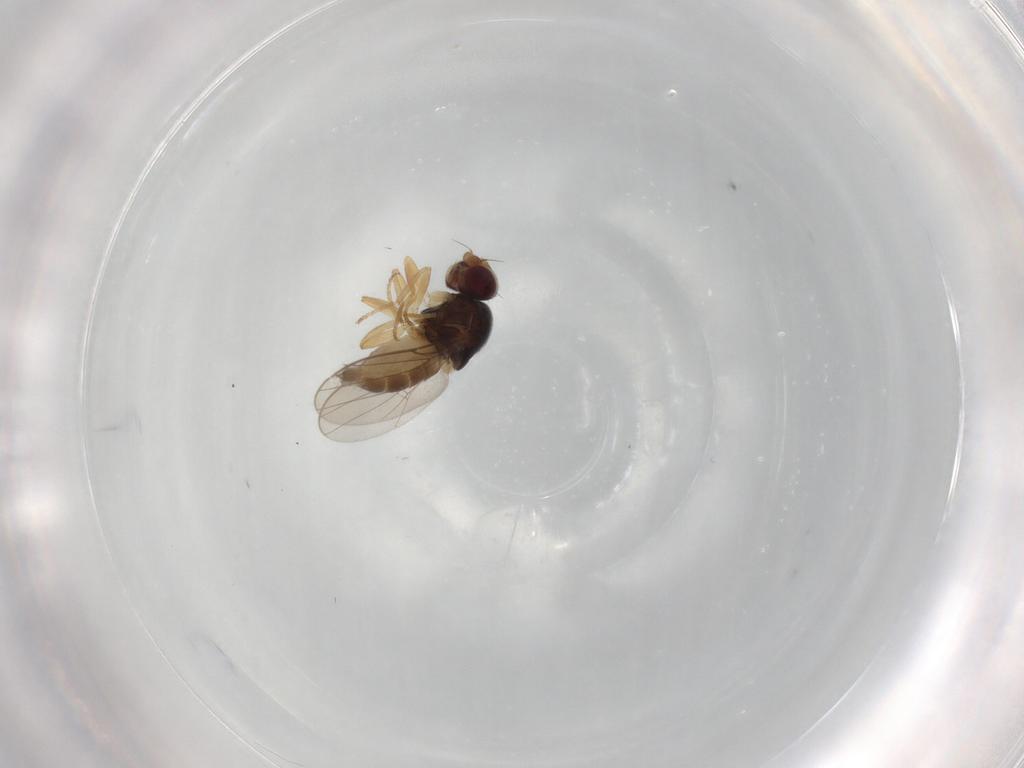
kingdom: Animalia
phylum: Arthropoda
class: Insecta
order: Diptera
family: Chloropidae
